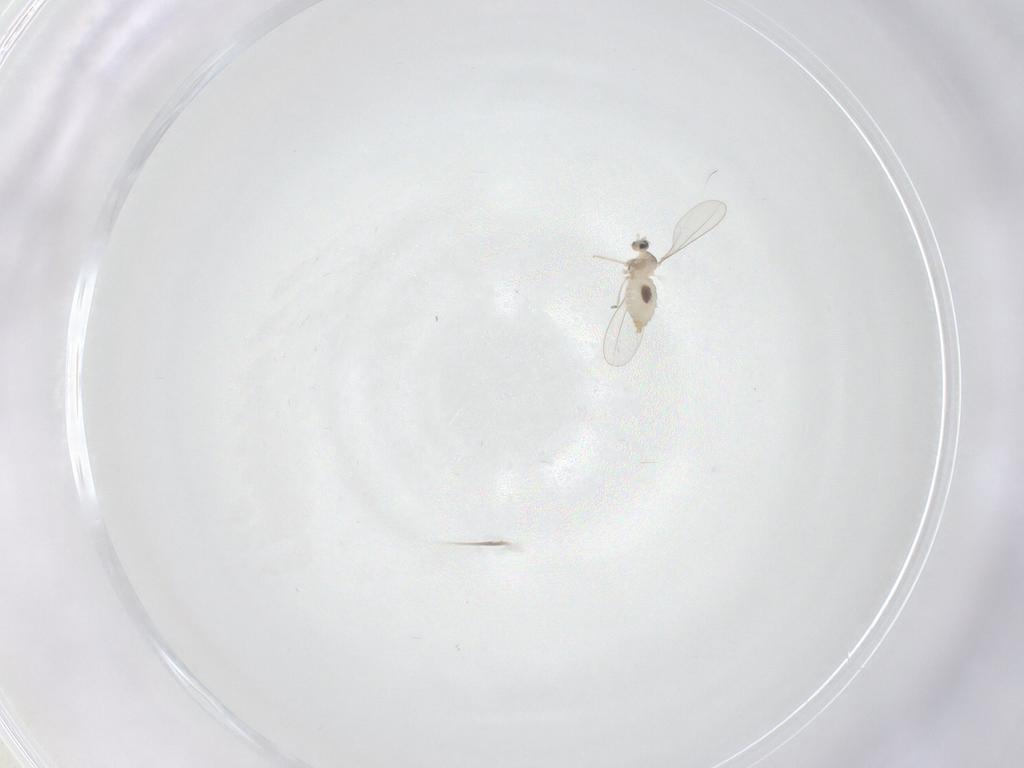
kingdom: Animalia
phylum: Arthropoda
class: Insecta
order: Diptera
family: Cecidomyiidae
